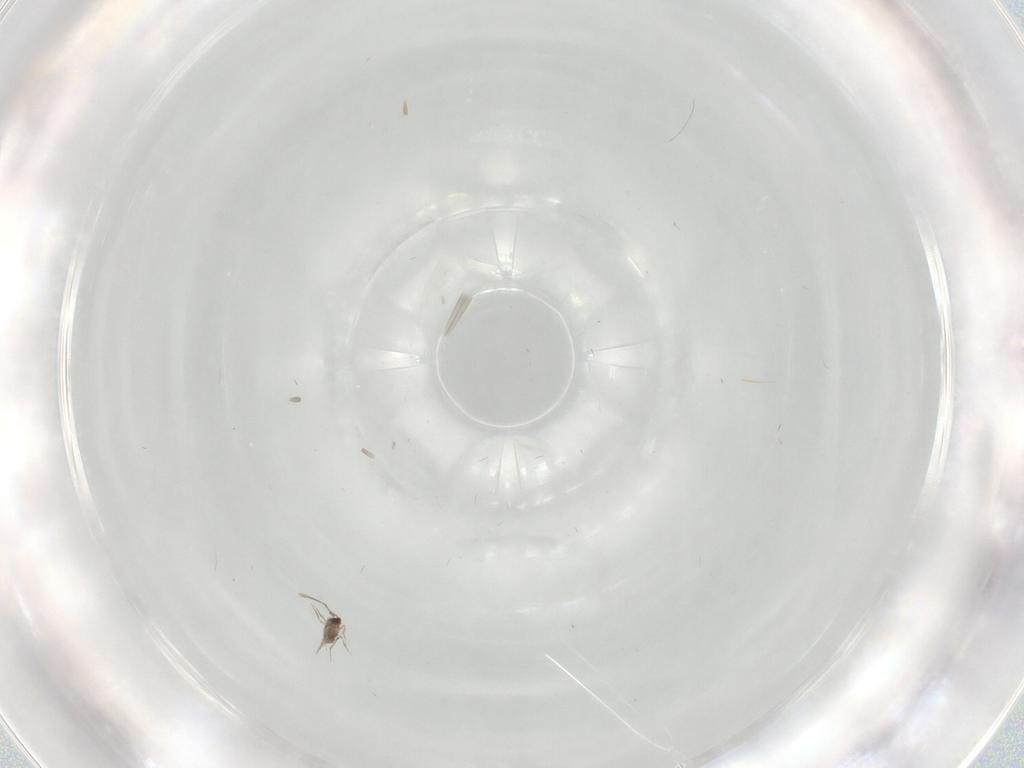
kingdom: Animalia
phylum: Arthropoda
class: Insecta
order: Hymenoptera
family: Mymaridae
